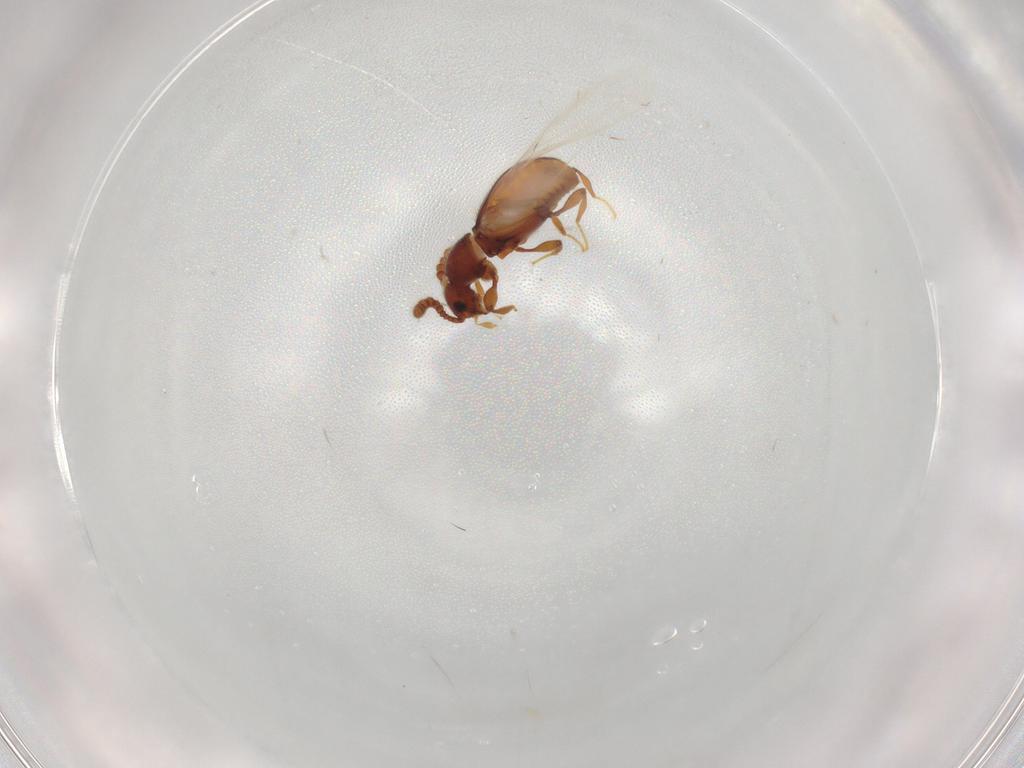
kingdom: Animalia
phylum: Arthropoda
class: Insecta
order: Coleoptera
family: Staphylinidae
